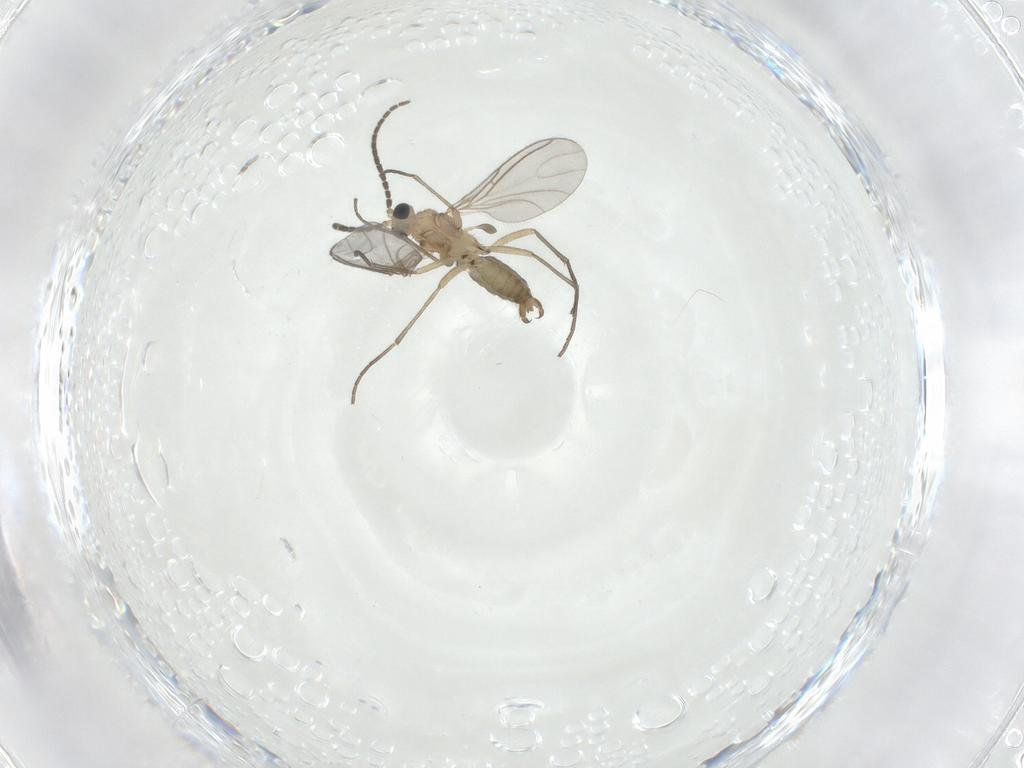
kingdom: Animalia
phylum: Arthropoda
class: Insecta
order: Diptera
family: Sciaridae
